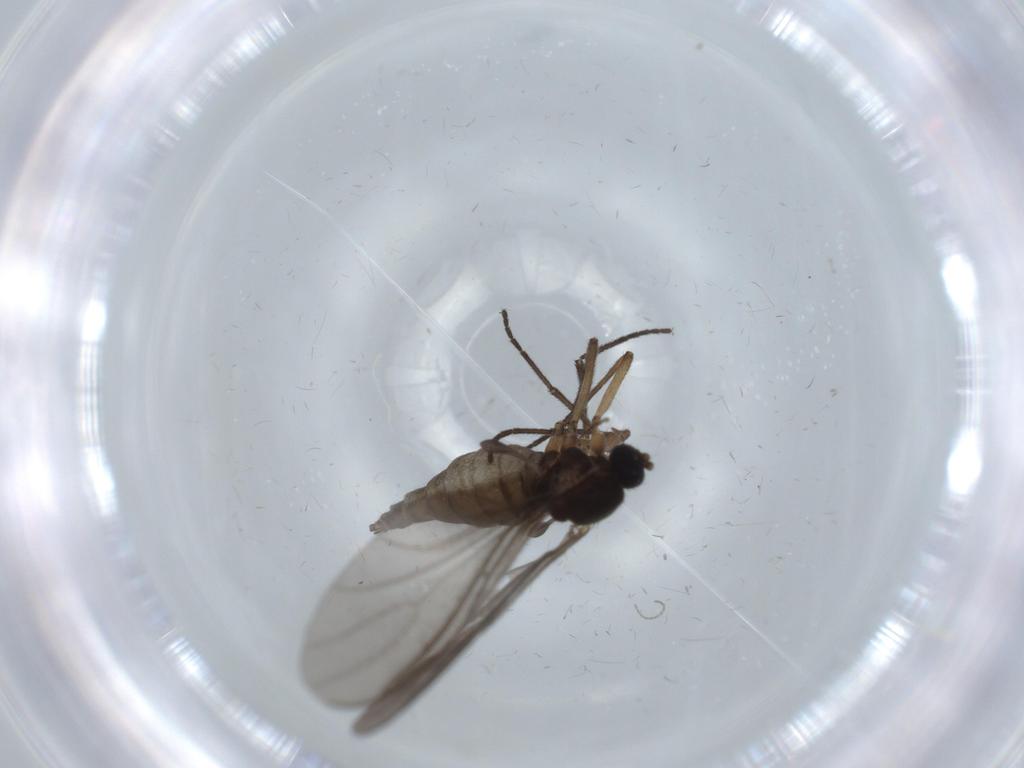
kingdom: Animalia
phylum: Arthropoda
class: Insecta
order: Diptera
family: Sciaridae
